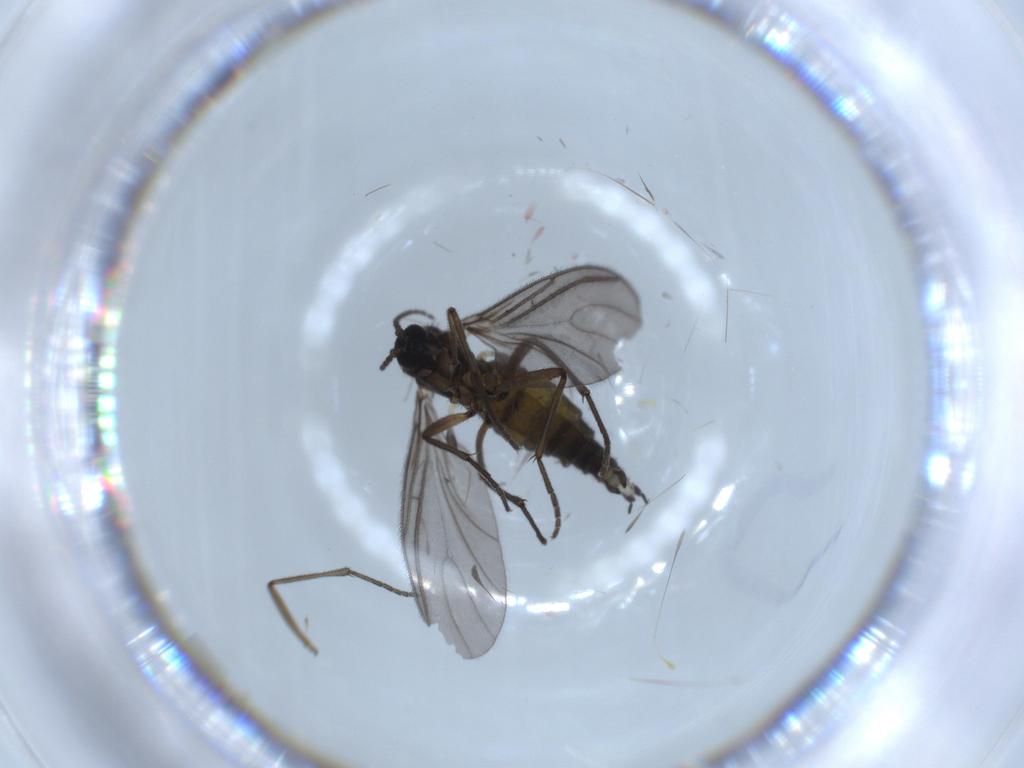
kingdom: Animalia
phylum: Arthropoda
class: Insecta
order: Diptera
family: Sciaridae
